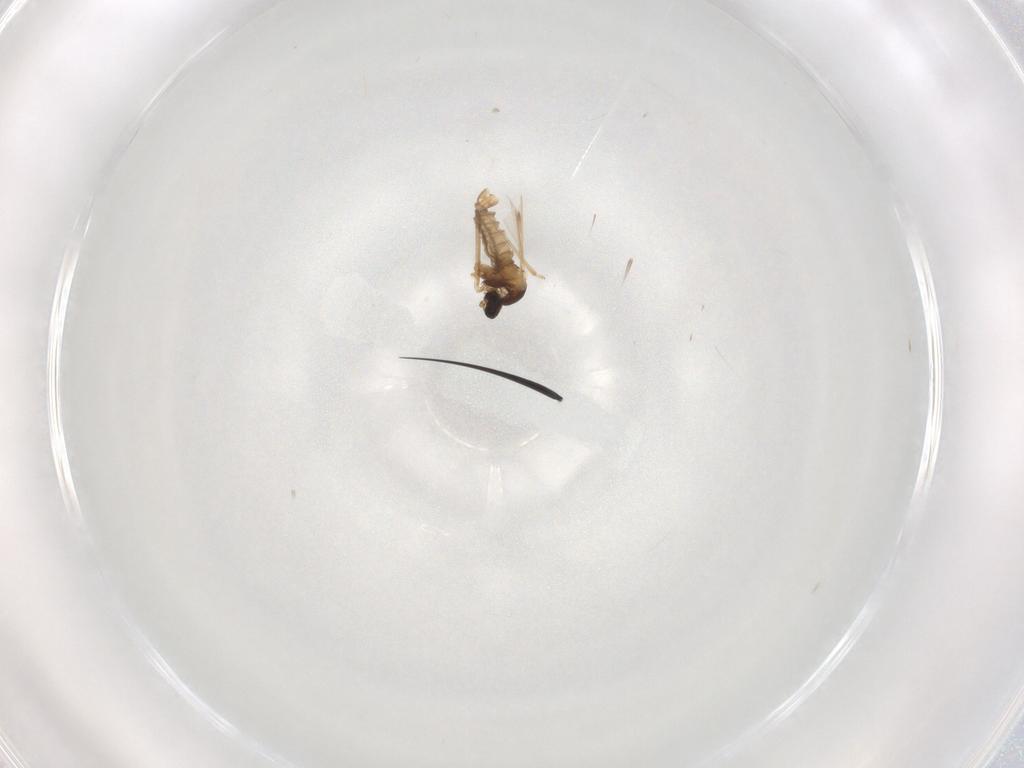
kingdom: Animalia
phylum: Arthropoda
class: Insecta
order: Diptera
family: Cecidomyiidae
